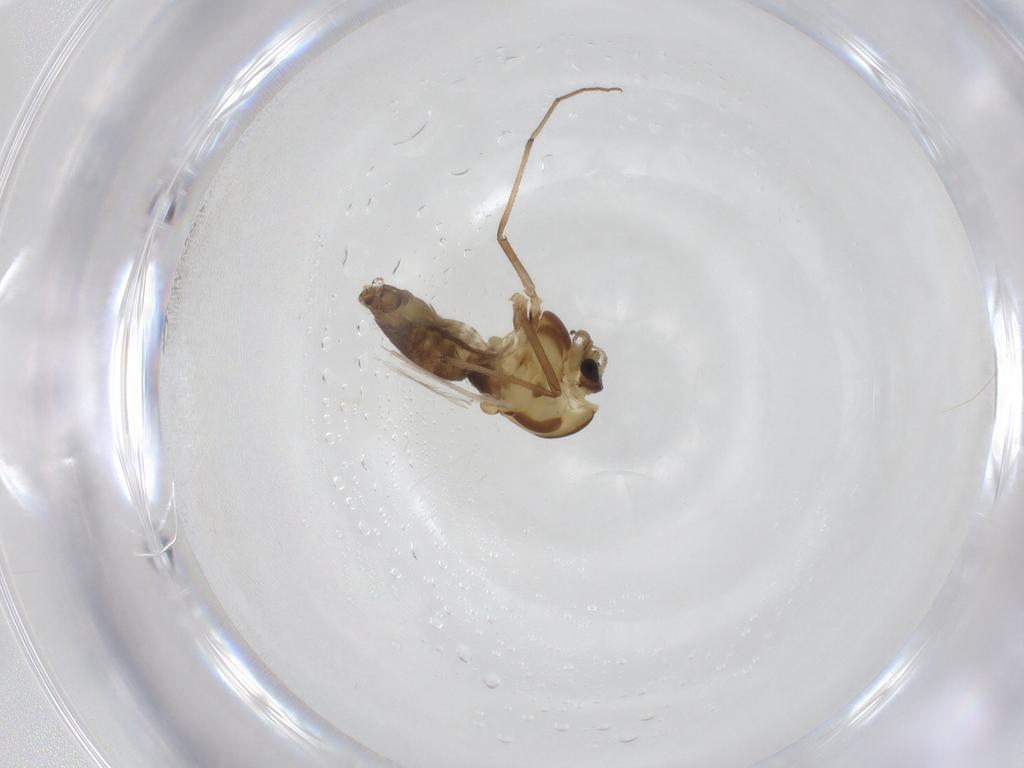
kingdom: Animalia
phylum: Arthropoda
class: Insecta
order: Diptera
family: Chironomidae
